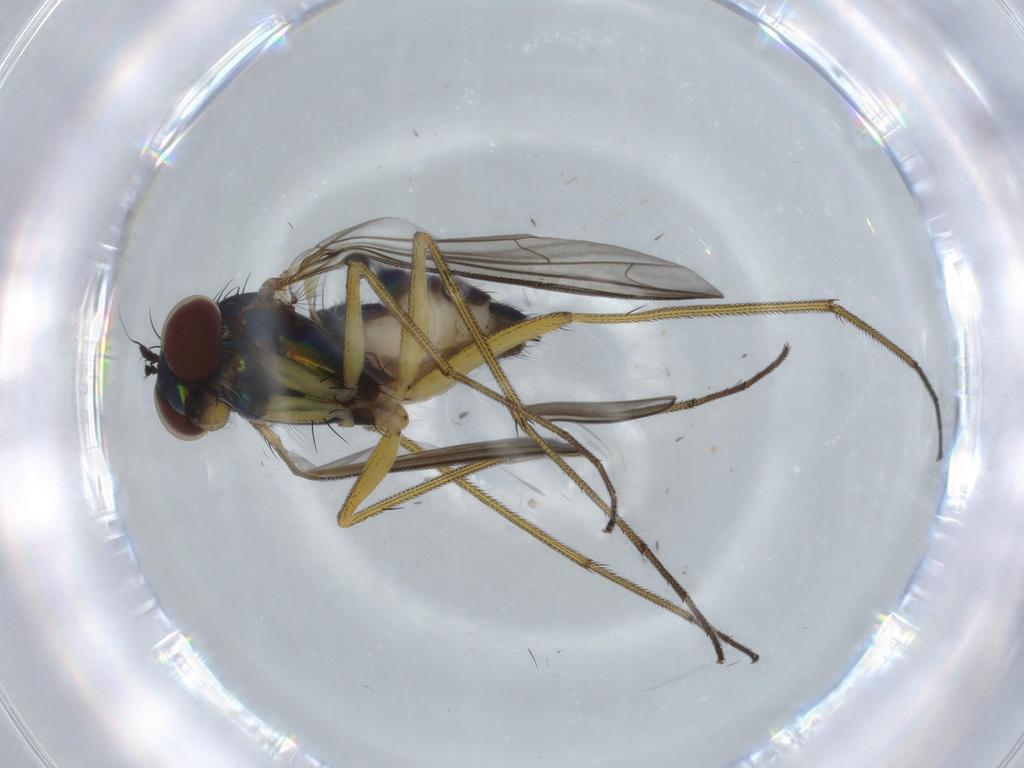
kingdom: Animalia
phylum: Arthropoda
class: Insecta
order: Diptera
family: Dolichopodidae
